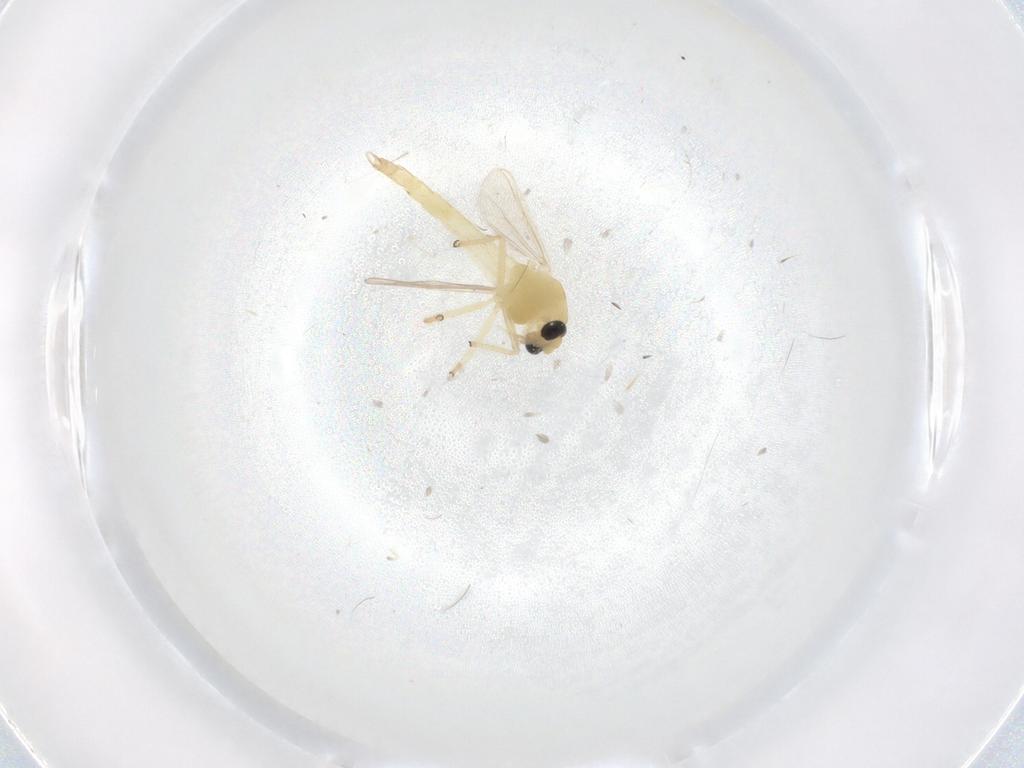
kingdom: Animalia
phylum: Arthropoda
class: Insecta
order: Diptera
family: Chironomidae
